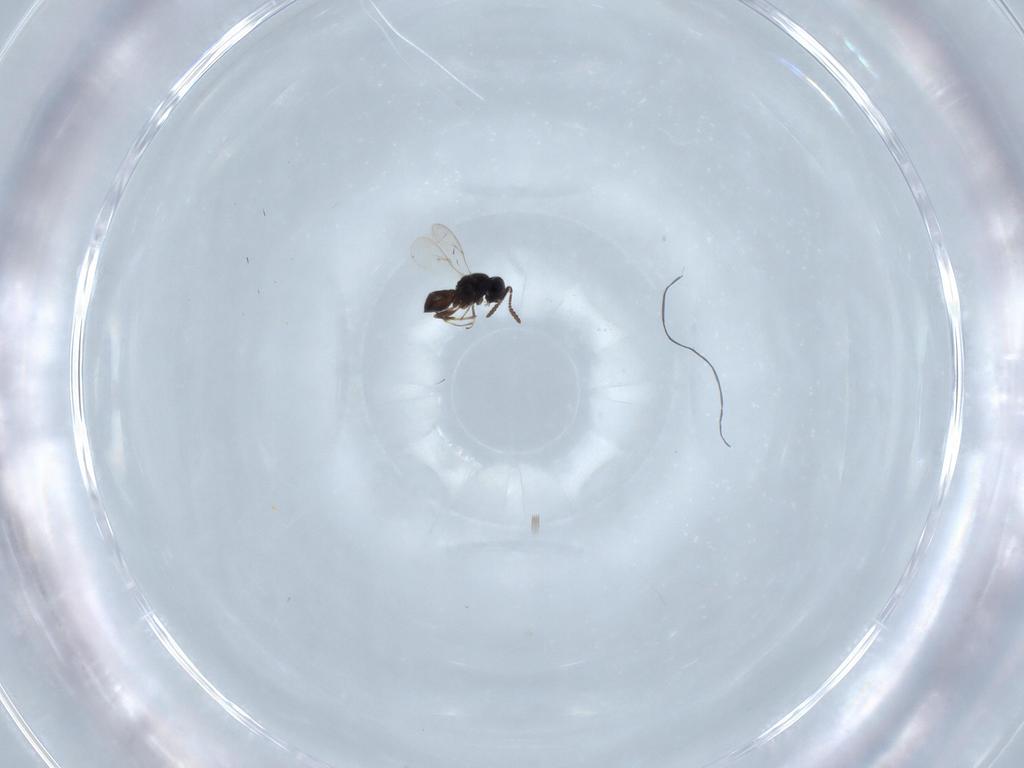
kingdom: Animalia
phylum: Arthropoda
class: Insecta
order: Hymenoptera
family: Scelionidae
